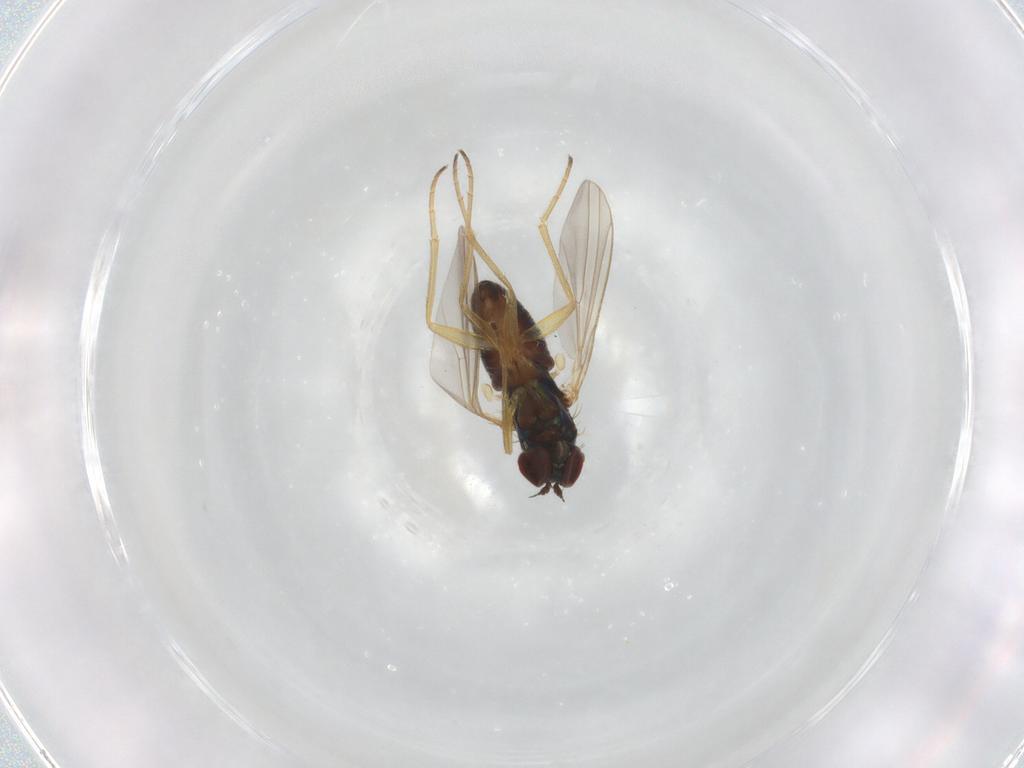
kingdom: Animalia
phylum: Arthropoda
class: Insecta
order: Diptera
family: Dolichopodidae
